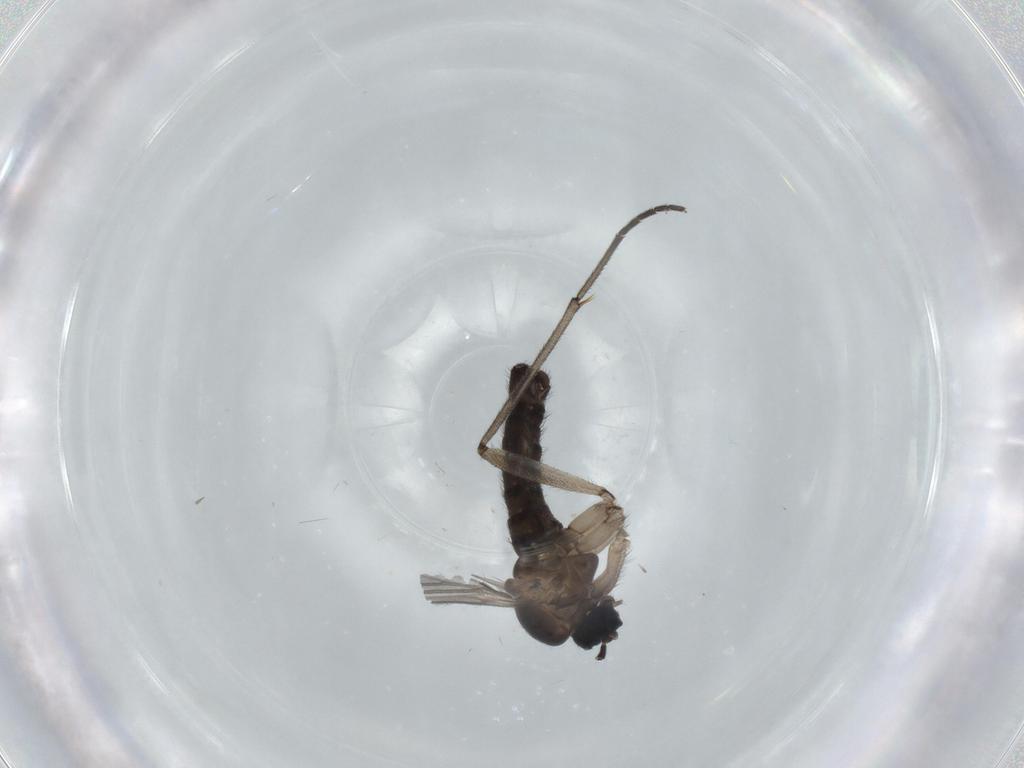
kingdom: Animalia
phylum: Arthropoda
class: Insecta
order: Diptera
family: Sciaridae
